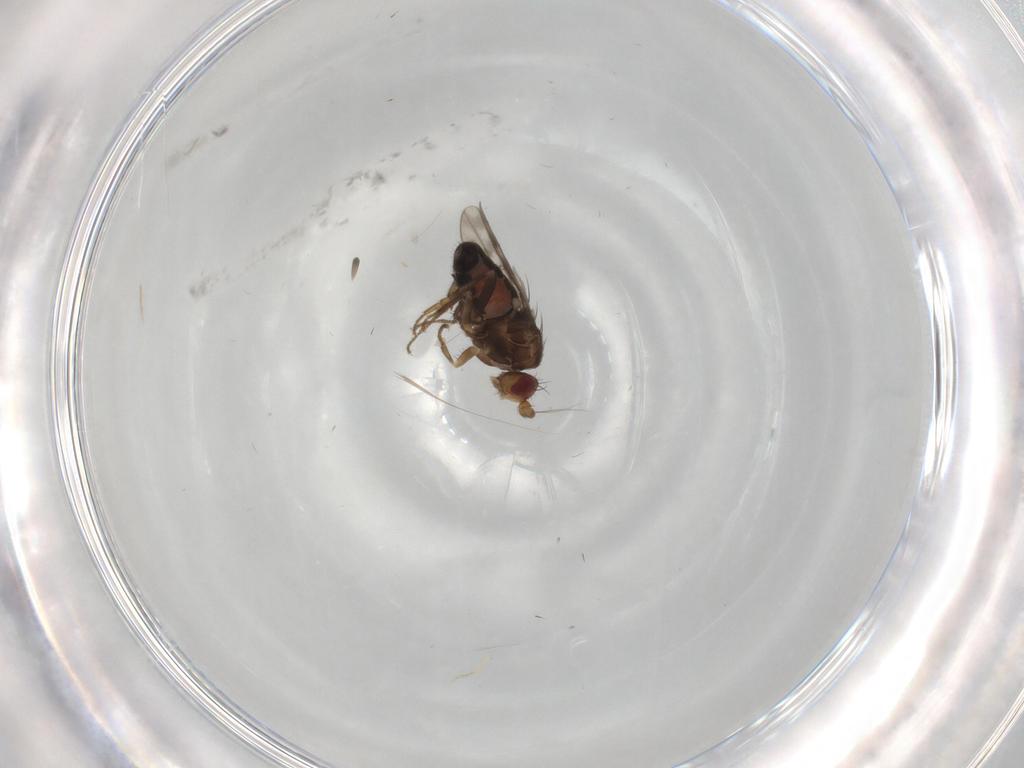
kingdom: Animalia
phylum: Arthropoda
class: Insecta
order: Diptera
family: Sphaeroceridae
